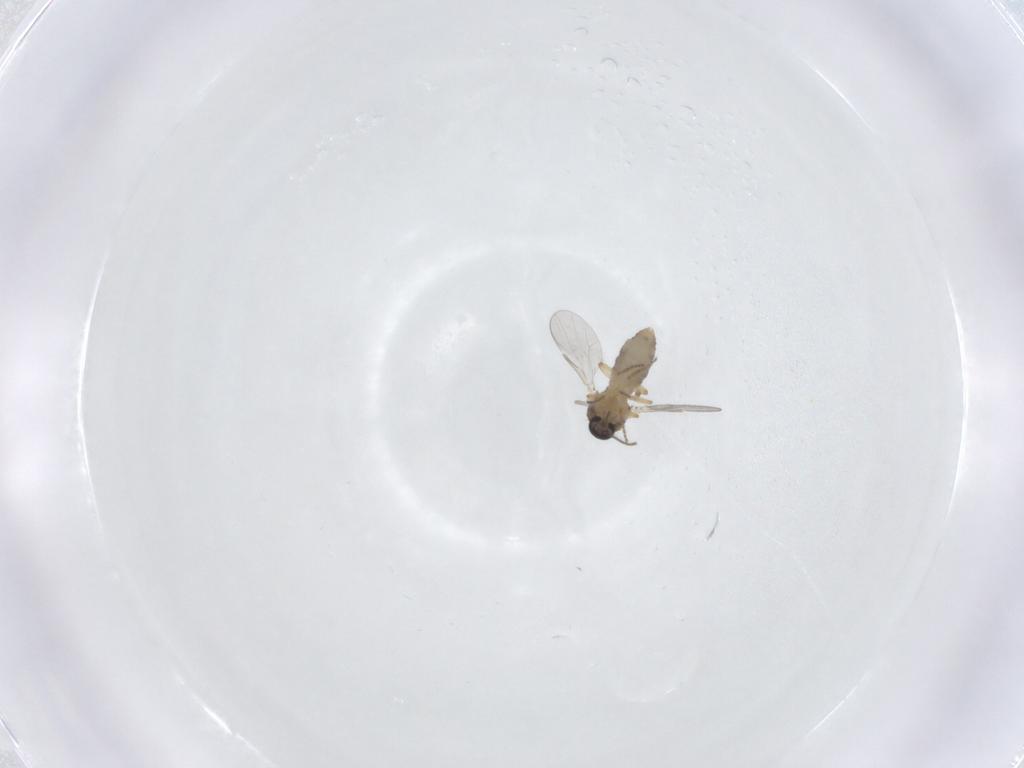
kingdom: Animalia
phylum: Arthropoda
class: Insecta
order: Diptera
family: Ceratopogonidae
